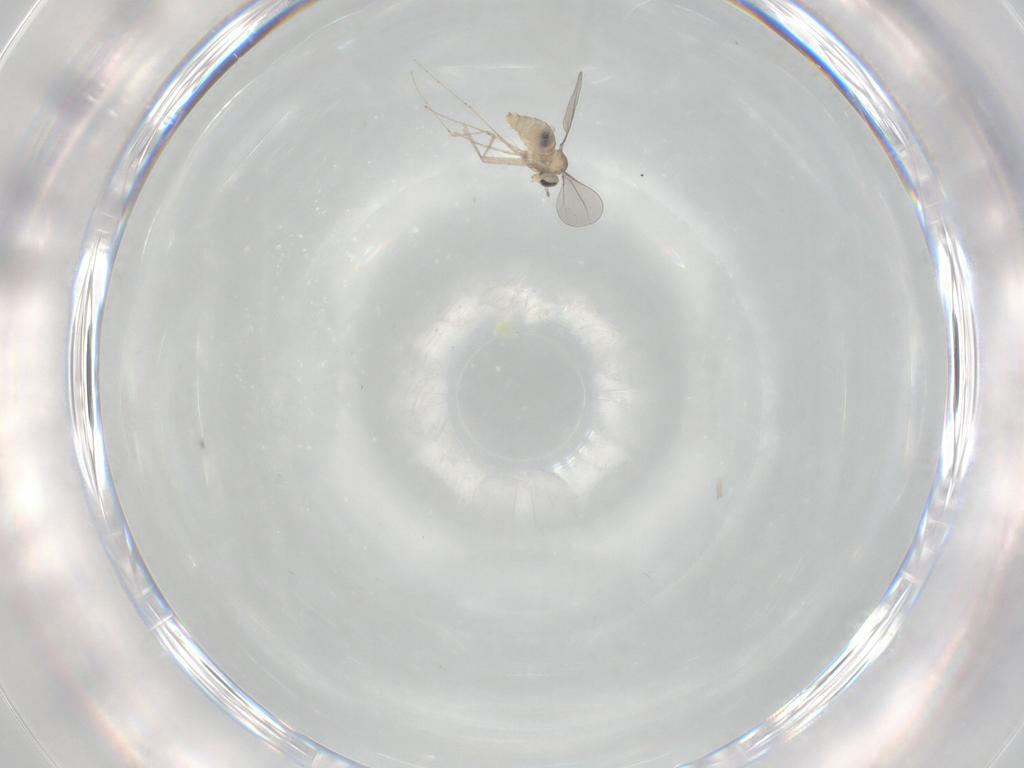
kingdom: Animalia
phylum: Arthropoda
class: Insecta
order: Diptera
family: Cecidomyiidae
